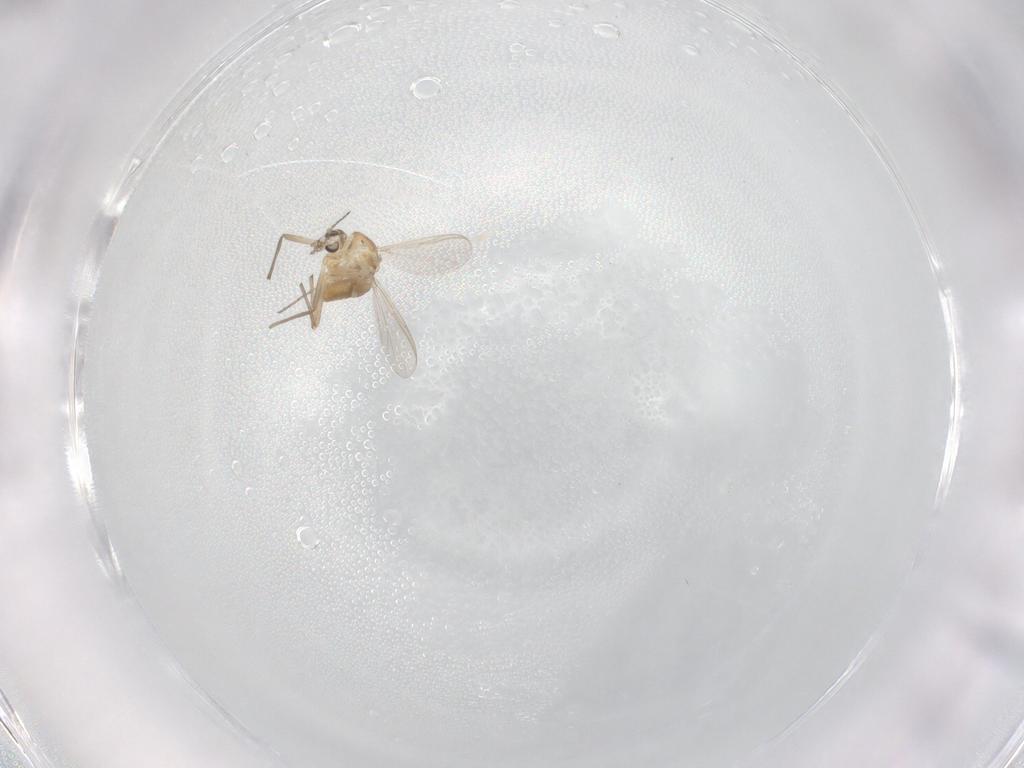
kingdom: Animalia
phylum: Arthropoda
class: Insecta
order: Diptera
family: Chironomidae
